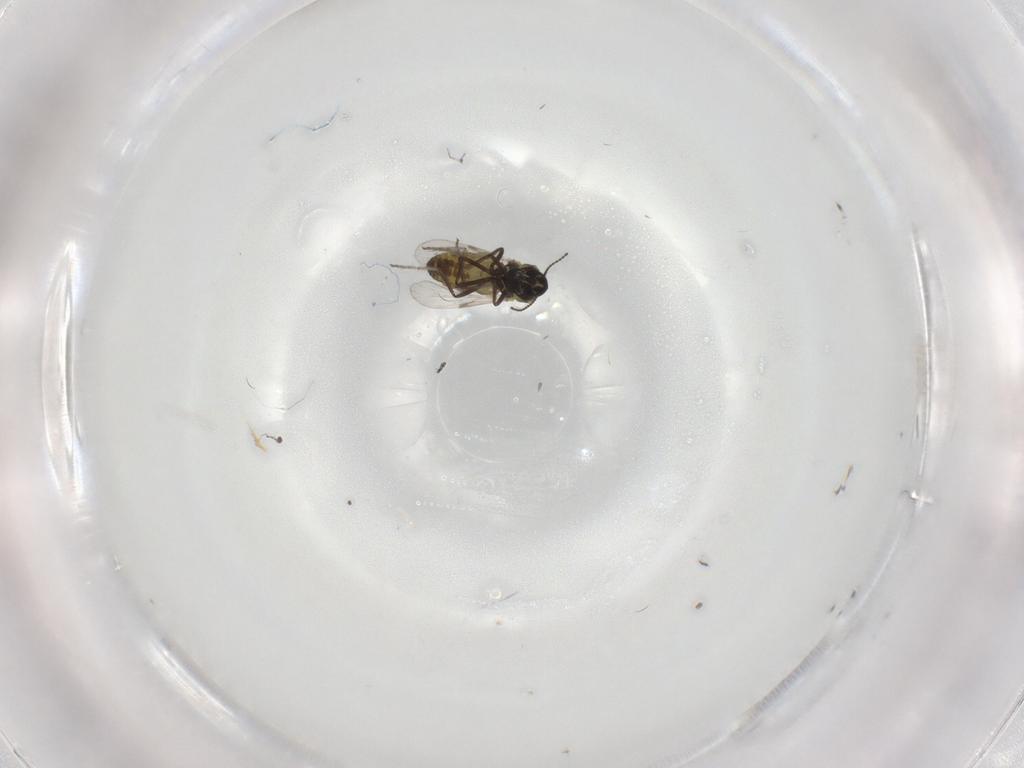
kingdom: Animalia
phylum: Arthropoda
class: Insecta
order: Diptera
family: Ceratopogonidae
